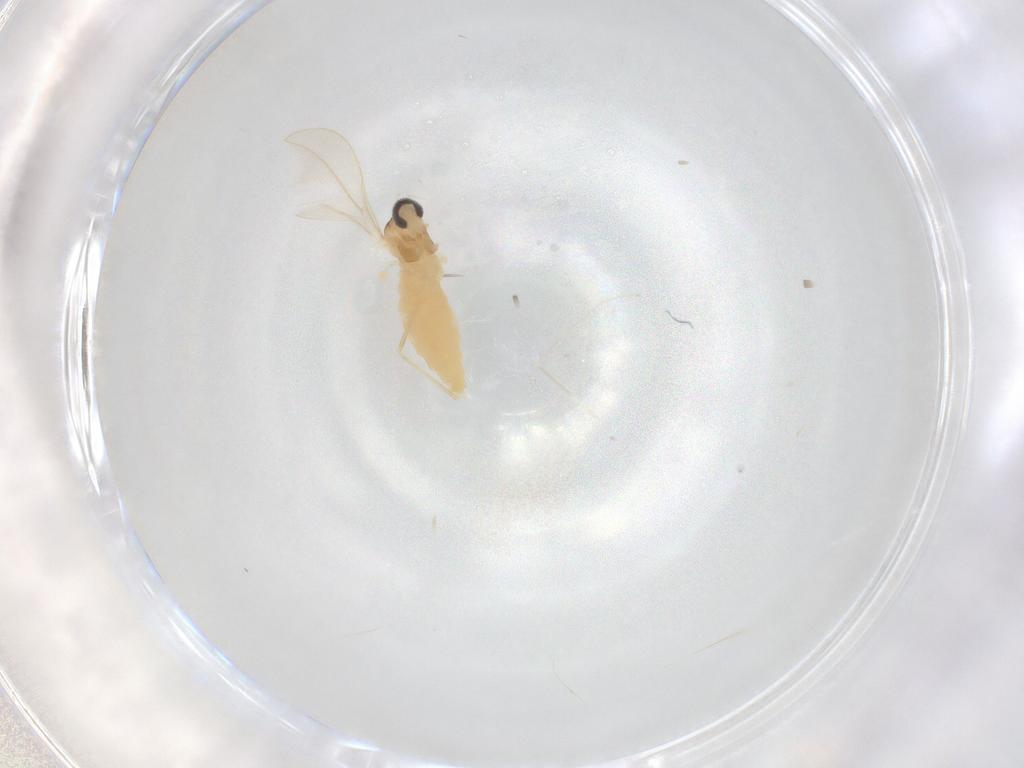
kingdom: Animalia
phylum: Arthropoda
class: Insecta
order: Diptera
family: Cecidomyiidae
